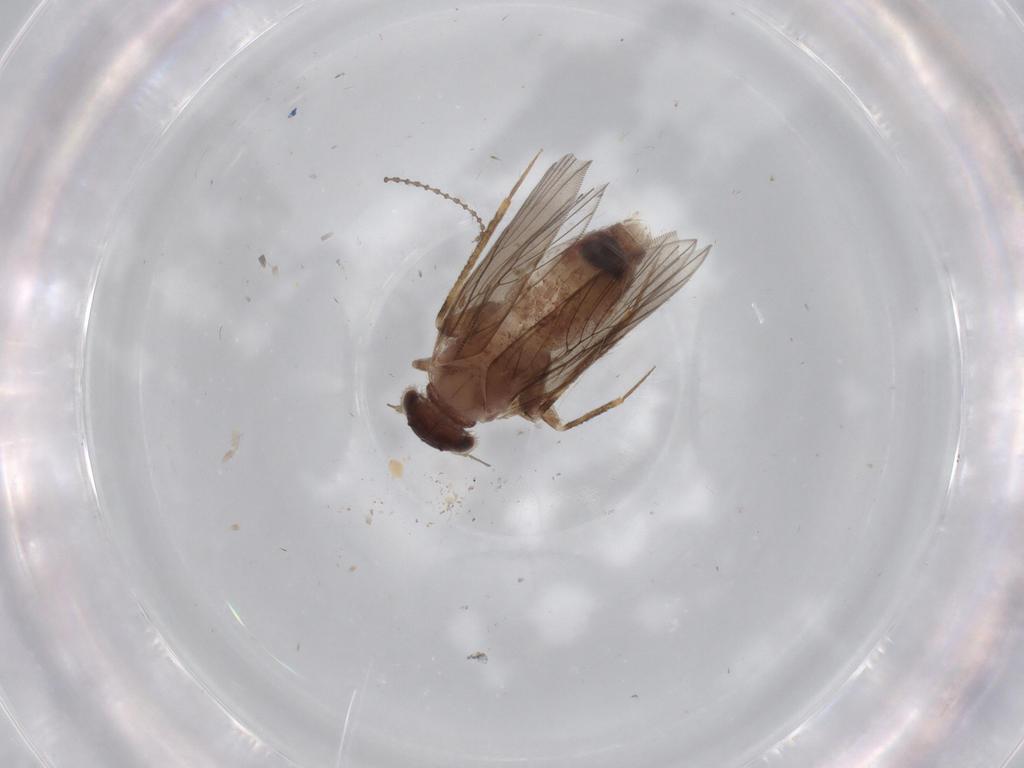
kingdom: Animalia
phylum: Arthropoda
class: Insecta
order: Psocodea
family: Lepidopsocidae
